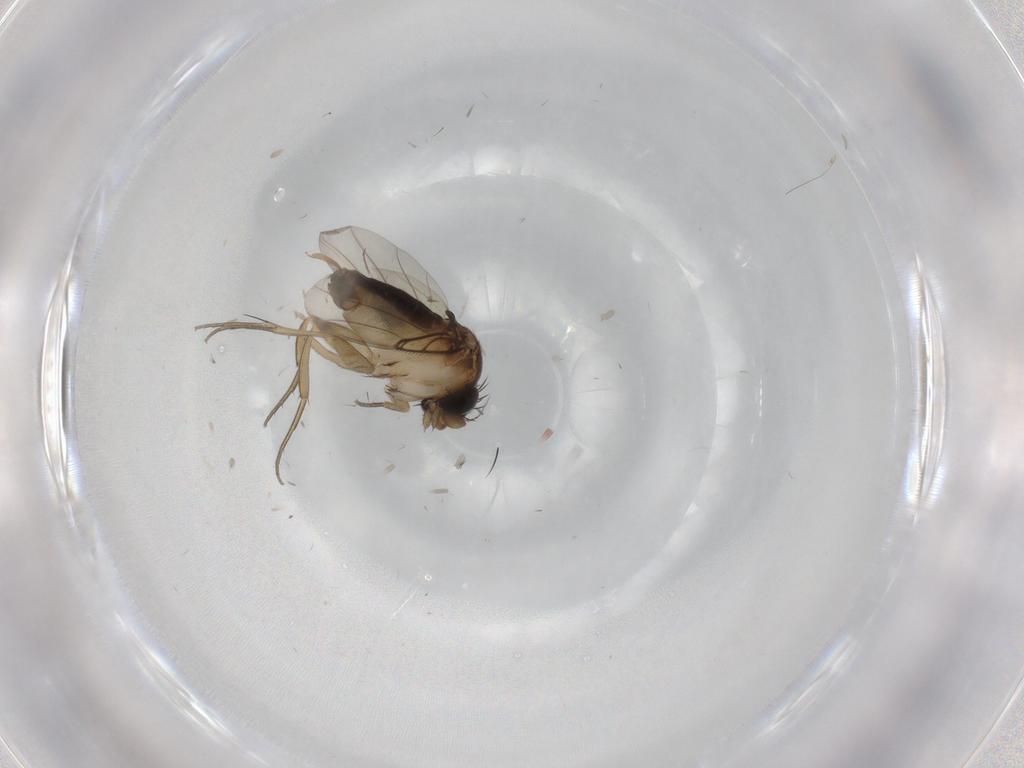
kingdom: Animalia
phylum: Arthropoda
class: Insecta
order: Diptera
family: Phoridae
